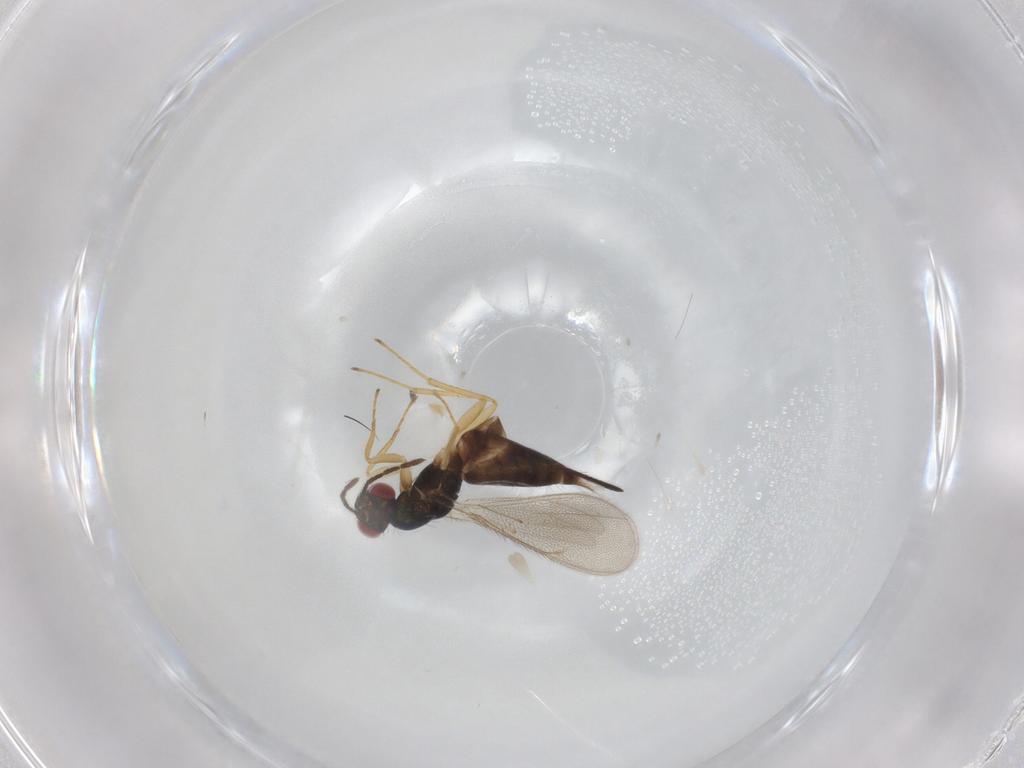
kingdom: Animalia
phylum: Arthropoda
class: Insecta
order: Hymenoptera
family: Eulophidae
